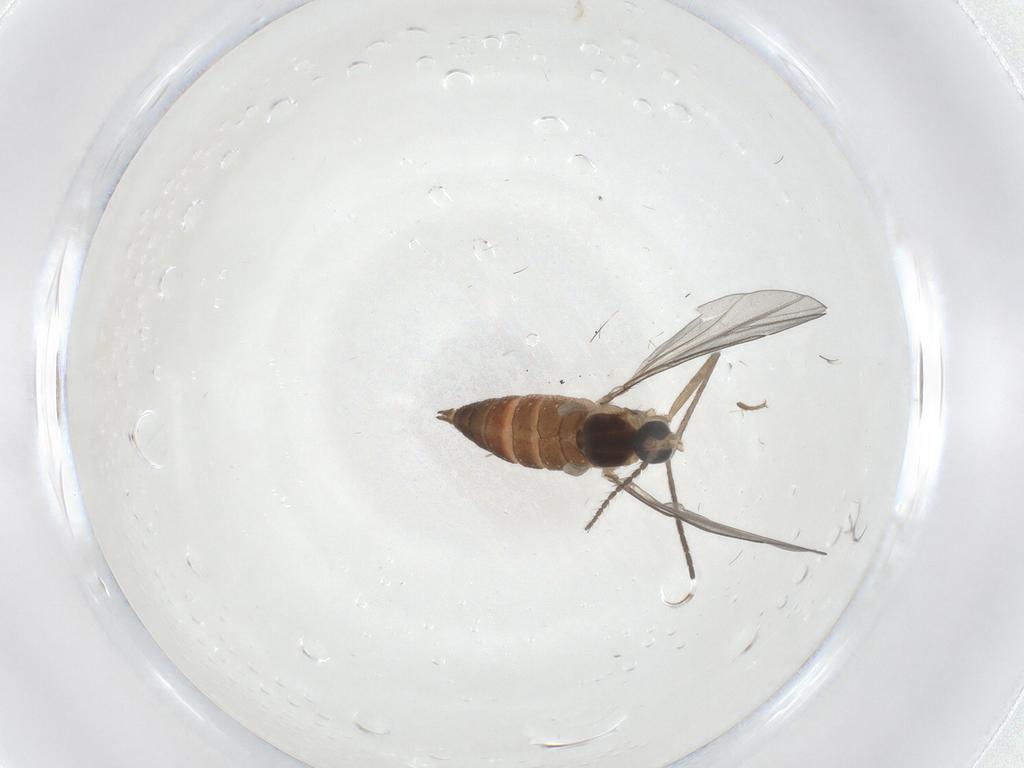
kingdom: Animalia
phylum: Arthropoda
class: Insecta
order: Diptera
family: Cecidomyiidae
